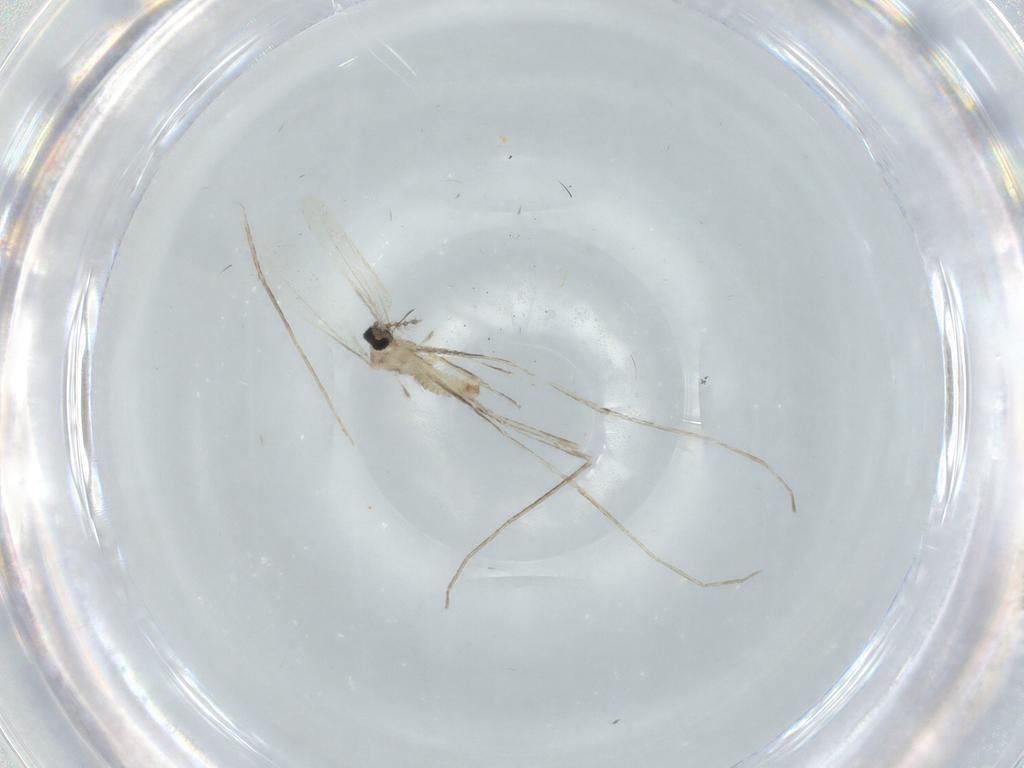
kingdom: Animalia
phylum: Arthropoda
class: Insecta
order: Diptera
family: Cecidomyiidae
